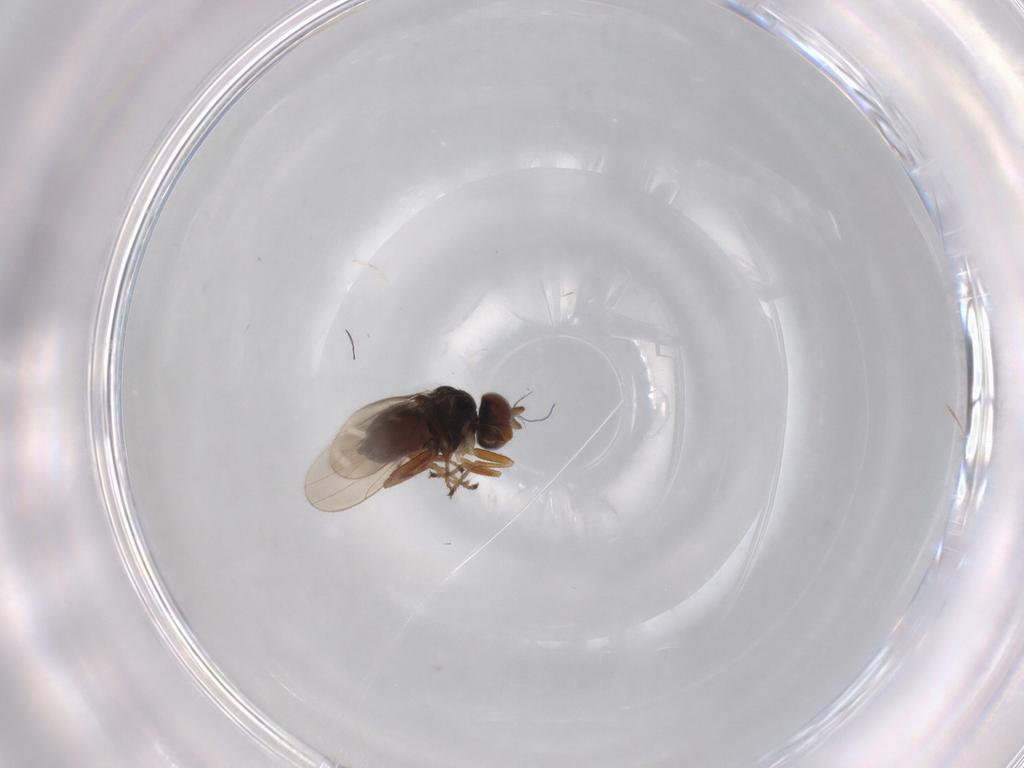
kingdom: Animalia
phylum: Arthropoda
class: Insecta
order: Diptera
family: Ephydridae
